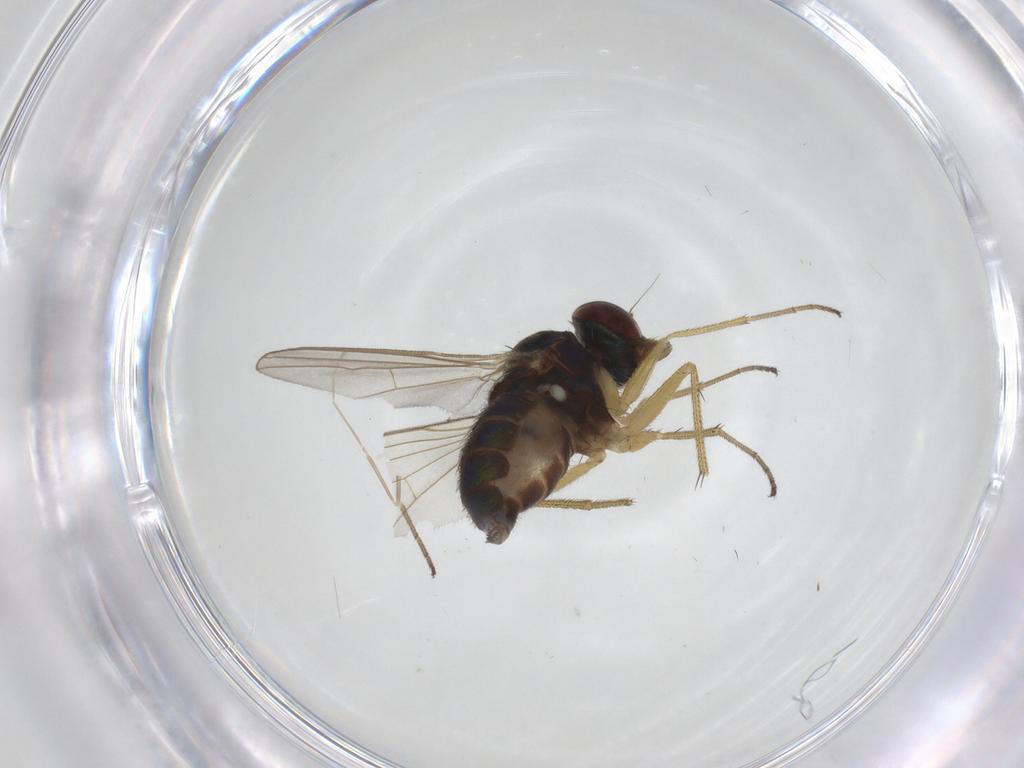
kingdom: Animalia
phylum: Arthropoda
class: Insecta
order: Diptera
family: Dolichopodidae
